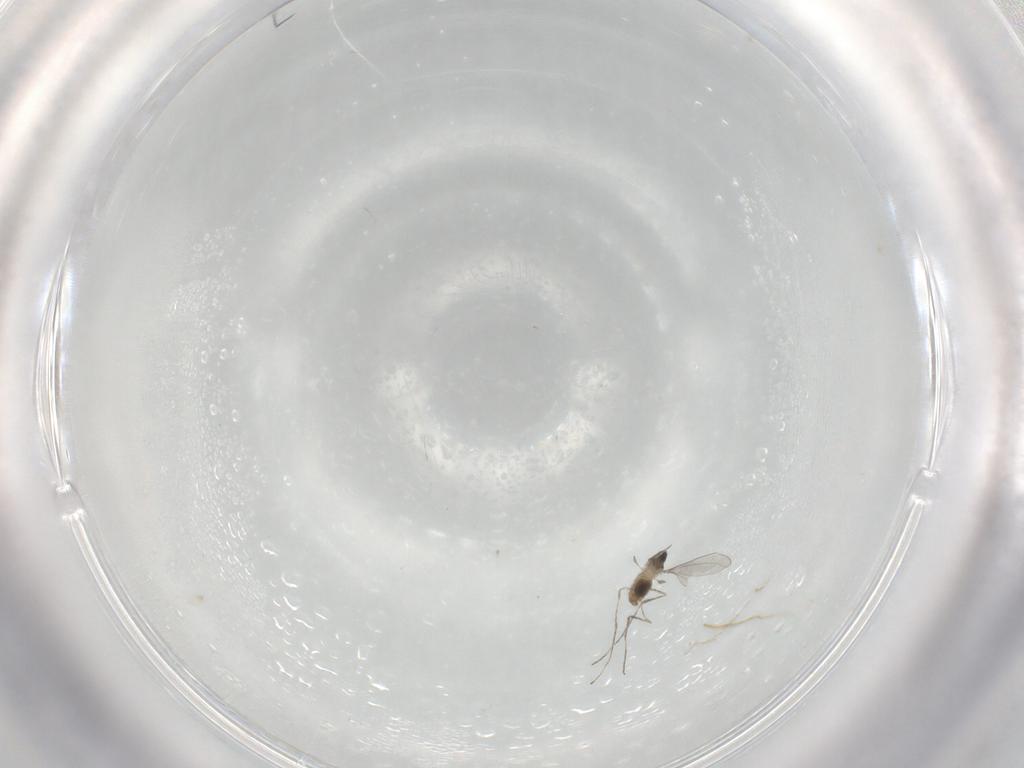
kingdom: Animalia
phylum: Arthropoda
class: Insecta
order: Diptera
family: Cecidomyiidae
